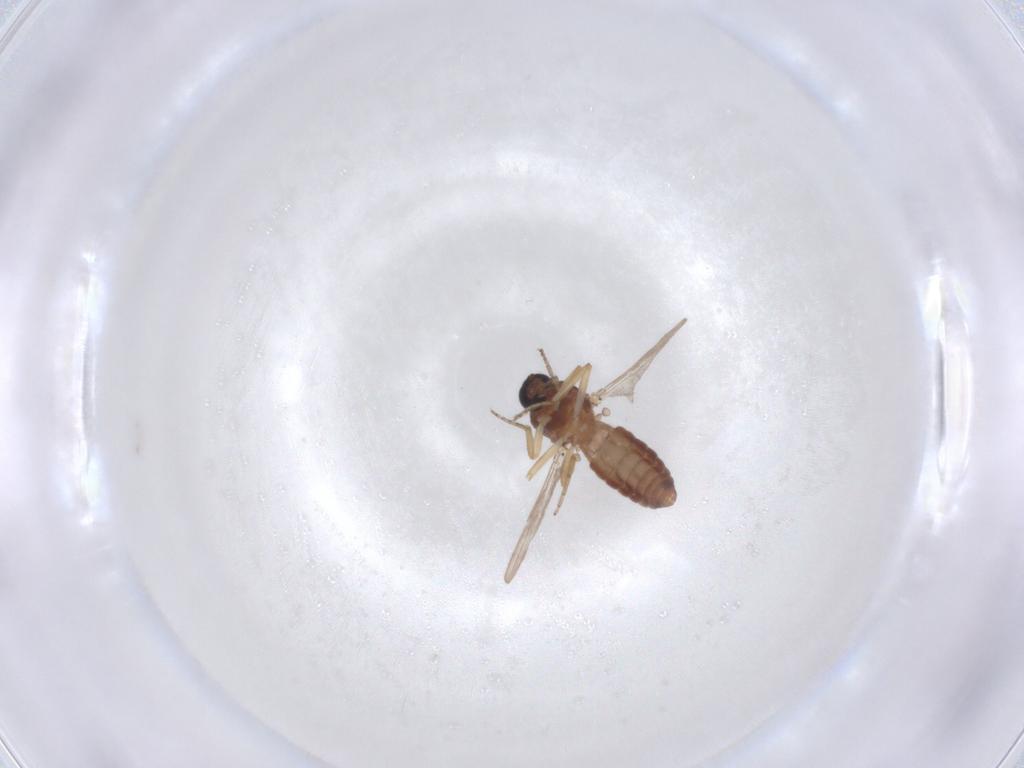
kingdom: Animalia
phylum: Arthropoda
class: Insecta
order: Diptera
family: Ceratopogonidae
